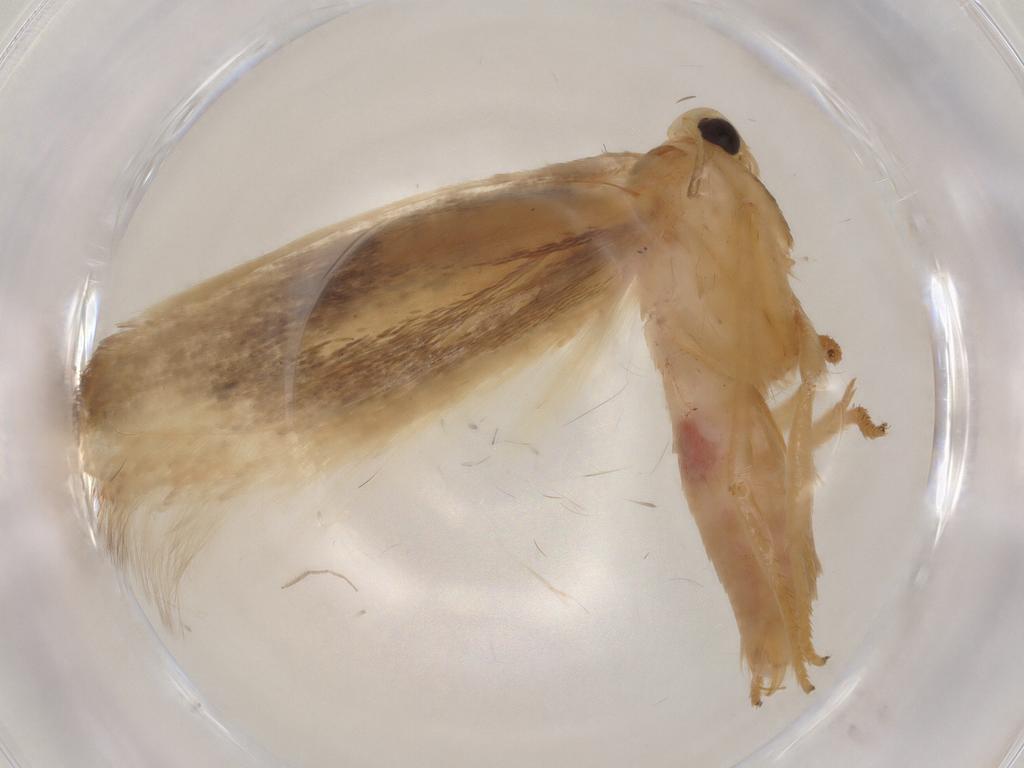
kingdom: Animalia
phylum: Arthropoda
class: Insecta
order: Lepidoptera
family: Geometridae
